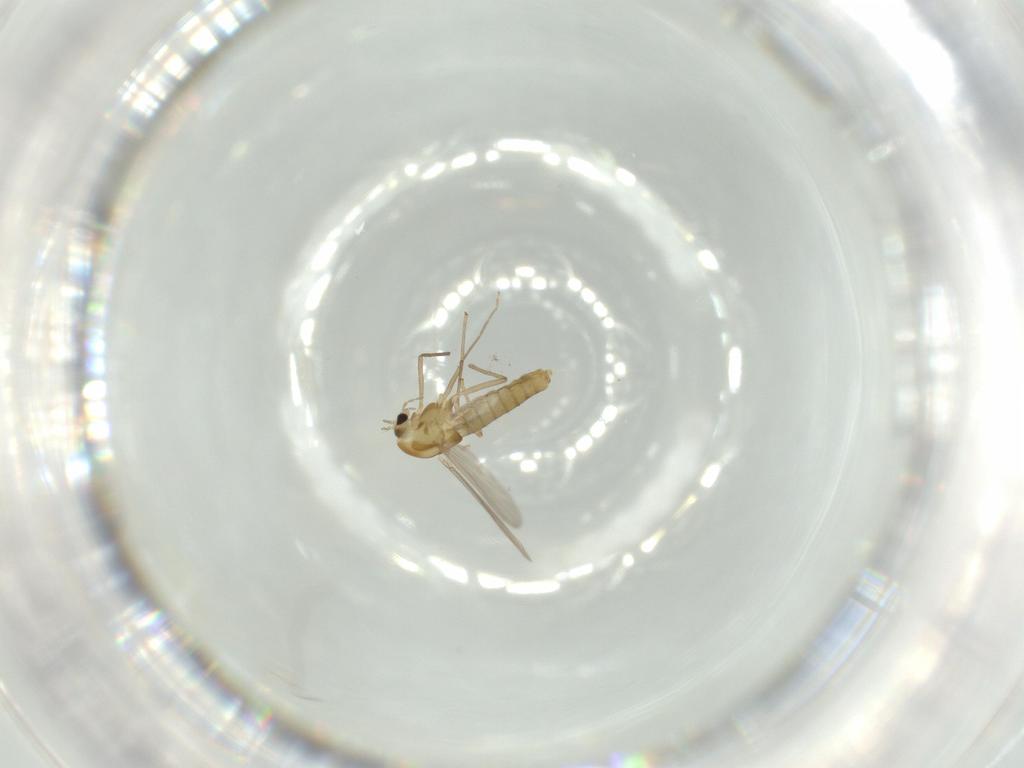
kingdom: Animalia
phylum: Arthropoda
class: Insecta
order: Diptera
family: Chironomidae
